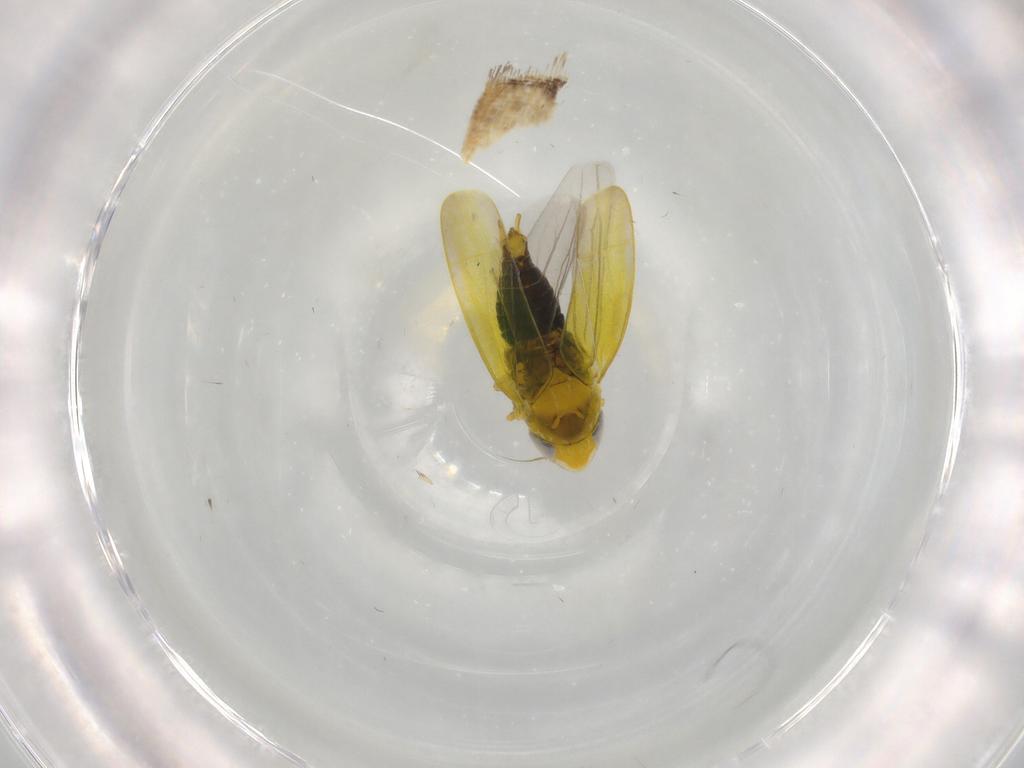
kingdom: Animalia
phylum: Arthropoda
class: Insecta
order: Hemiptera
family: Cicadellidae
